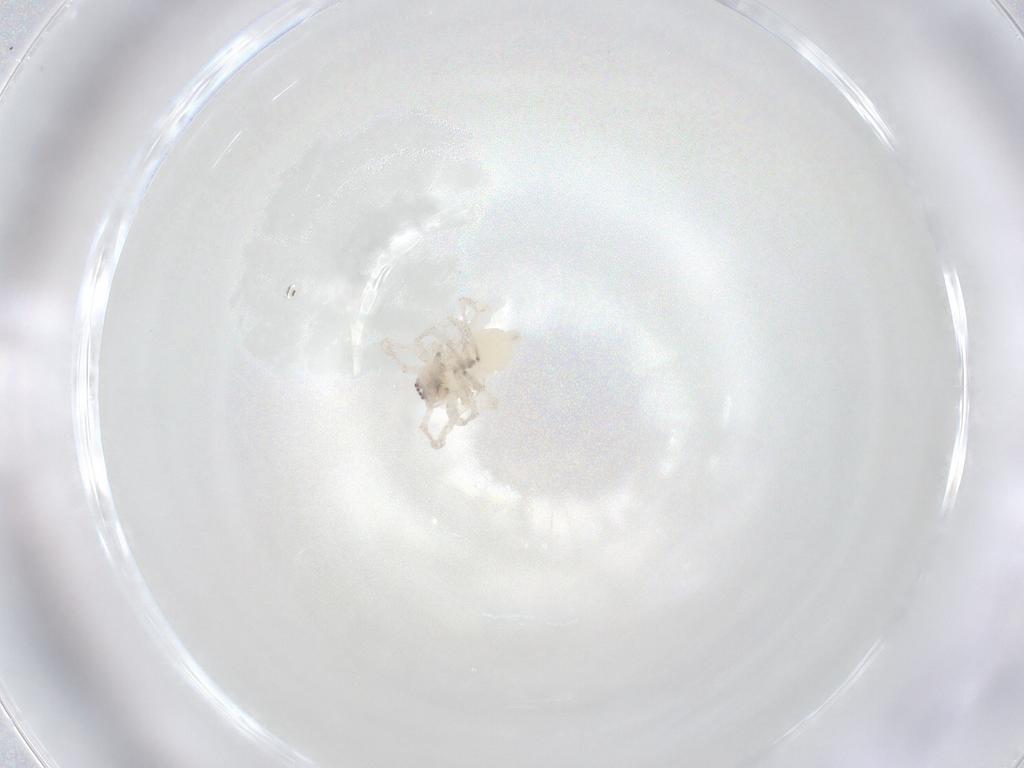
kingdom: Animalia
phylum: Arthropoda
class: Arachnida
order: Araneae
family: Anyphaenidae
